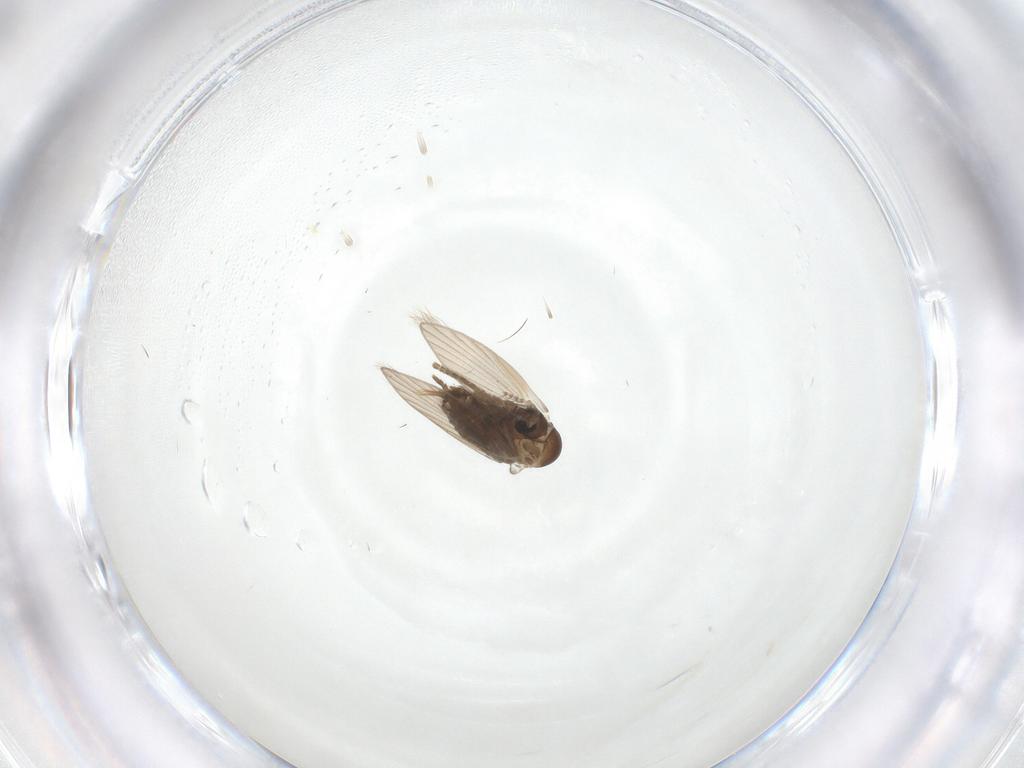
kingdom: Animalia
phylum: Arthropoda
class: Insecta
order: Diptera
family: Psychodidae
